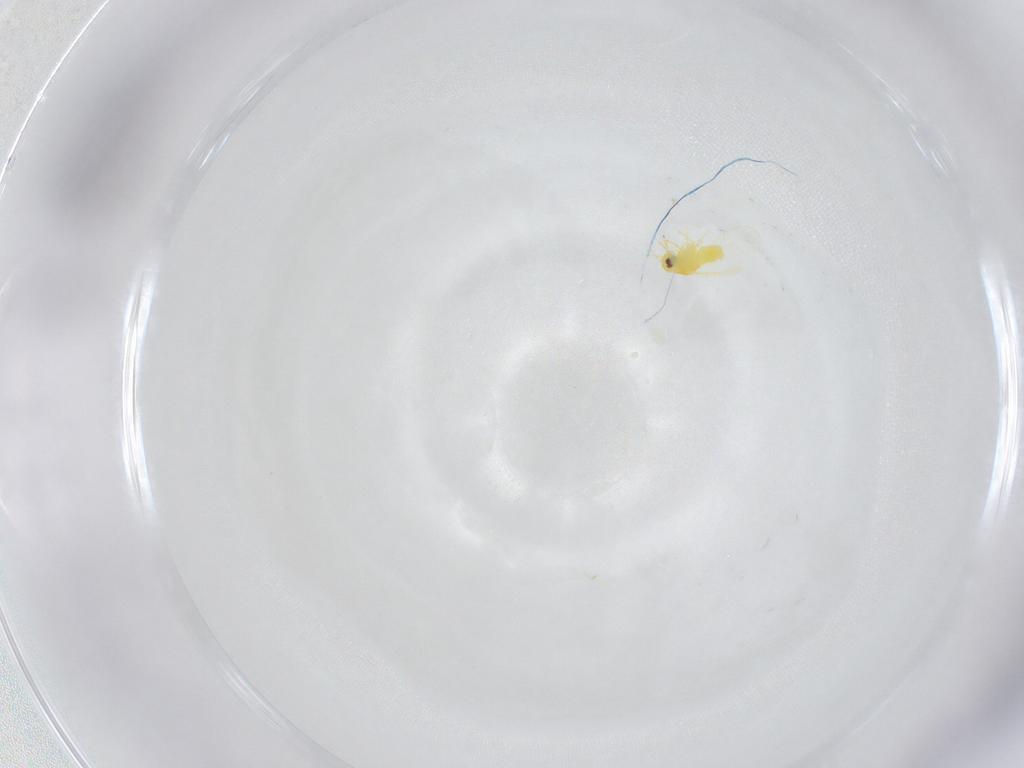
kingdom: Animalia
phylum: Arthropoda
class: Insecta
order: Hemiptera
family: Aleyrodidae
